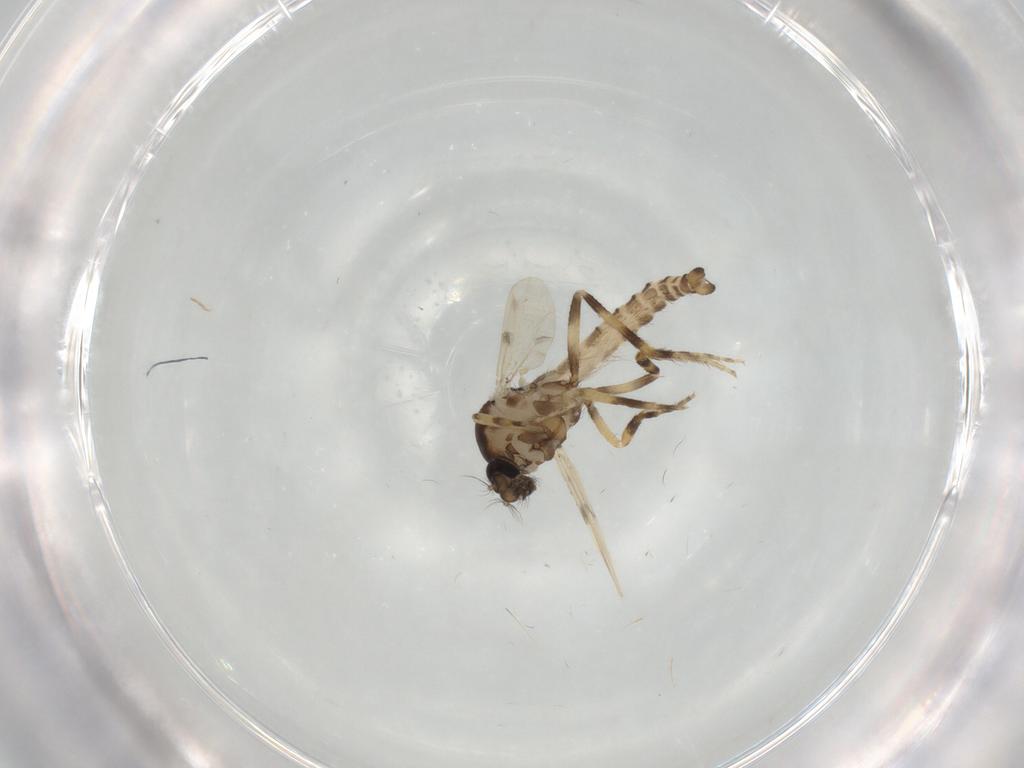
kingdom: Animalia
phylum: Arthropoda
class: Insecta
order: Diptera
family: Ceratopogonidae
